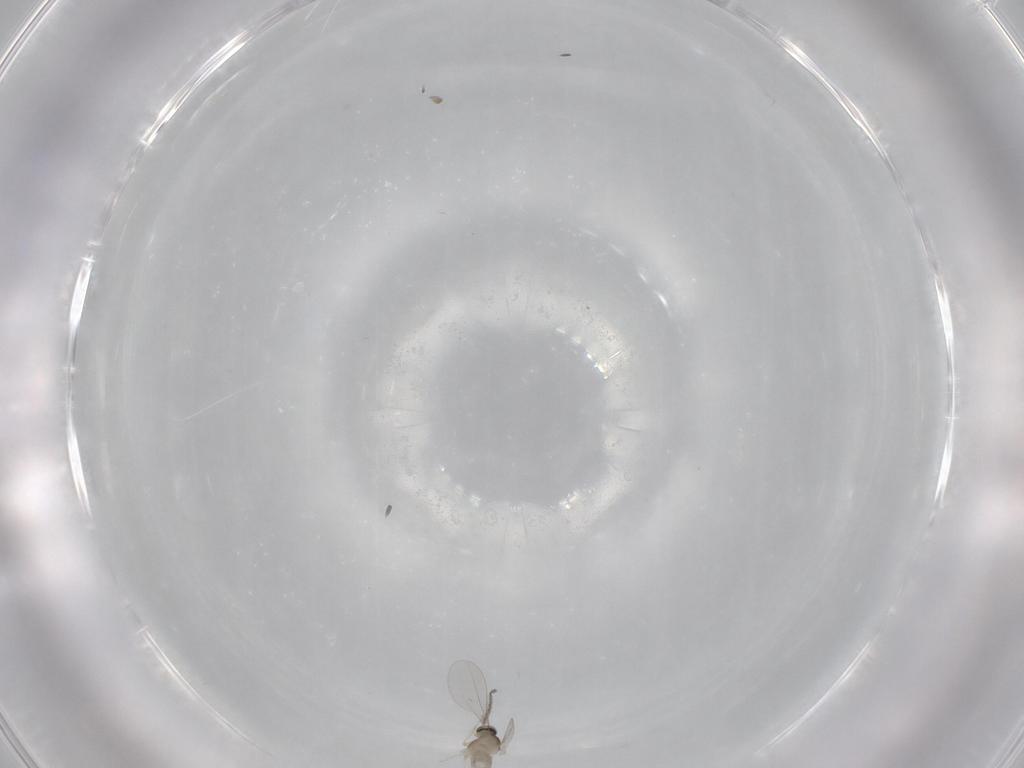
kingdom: Animalia
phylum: Arthropoda
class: Insecta
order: Diptera
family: Cecidomyiidae
